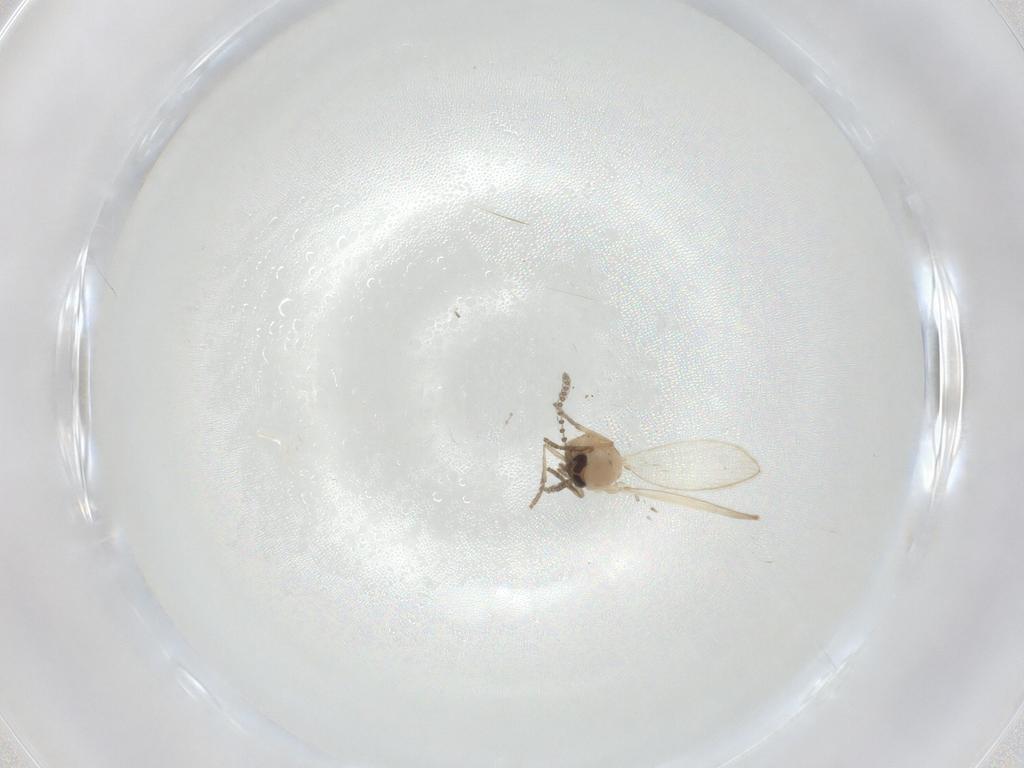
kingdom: Animalia
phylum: Arthropoda
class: Insecta
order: Diptera
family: Psychodidae
